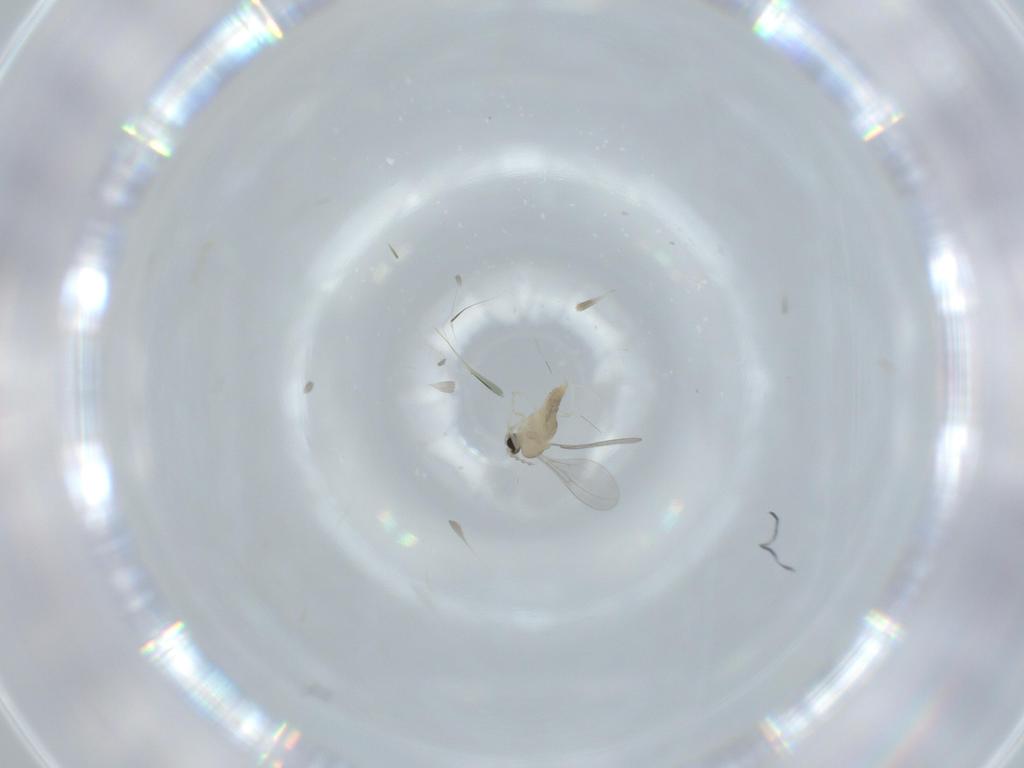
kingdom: Animalia
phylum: Arthropoda
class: Insecta
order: Diptera
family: Cecidomyiidae
